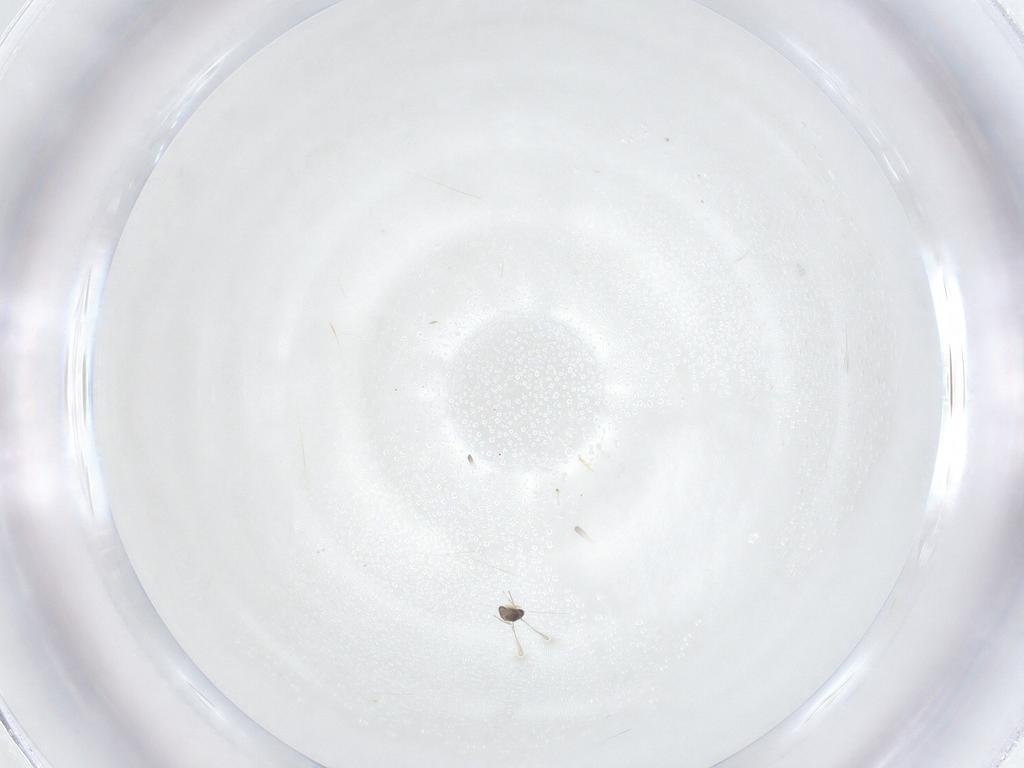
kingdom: Animalia
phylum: Arthropoda
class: Insecta
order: Hymenoptera
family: Mymaridae
